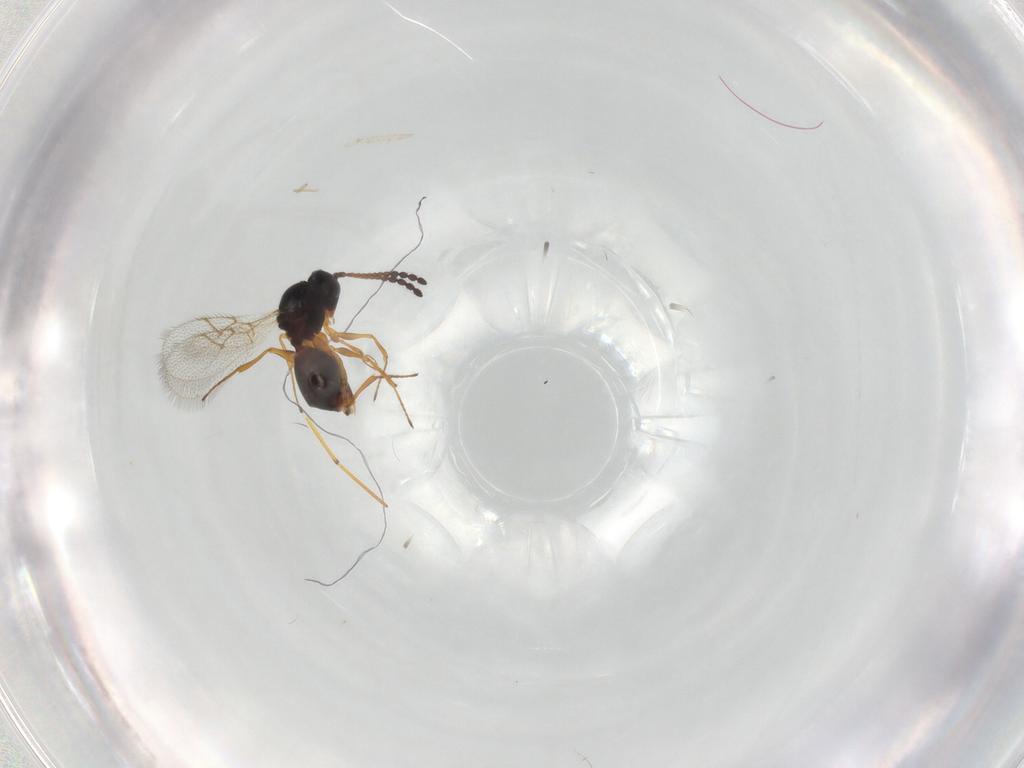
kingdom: Animalia
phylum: Arthropoda
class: Insecta
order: Hymenoptera
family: Figitidae
